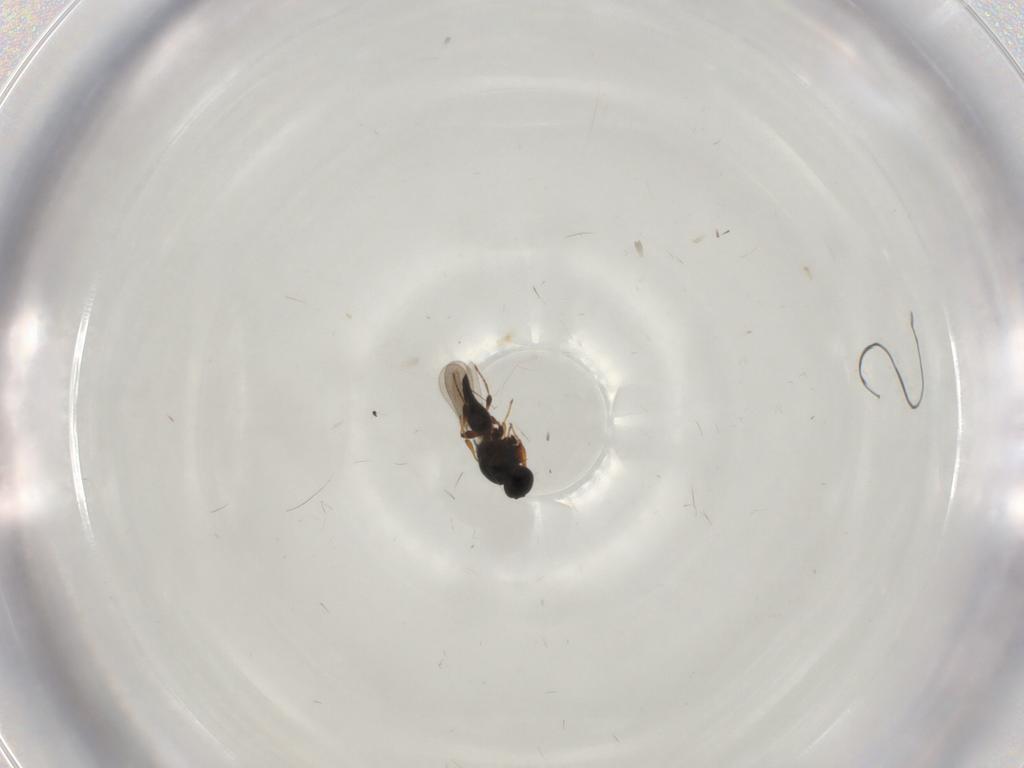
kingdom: Animalia
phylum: Arthropoda
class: Insecta
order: Hymenoptera
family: Platygastridae
